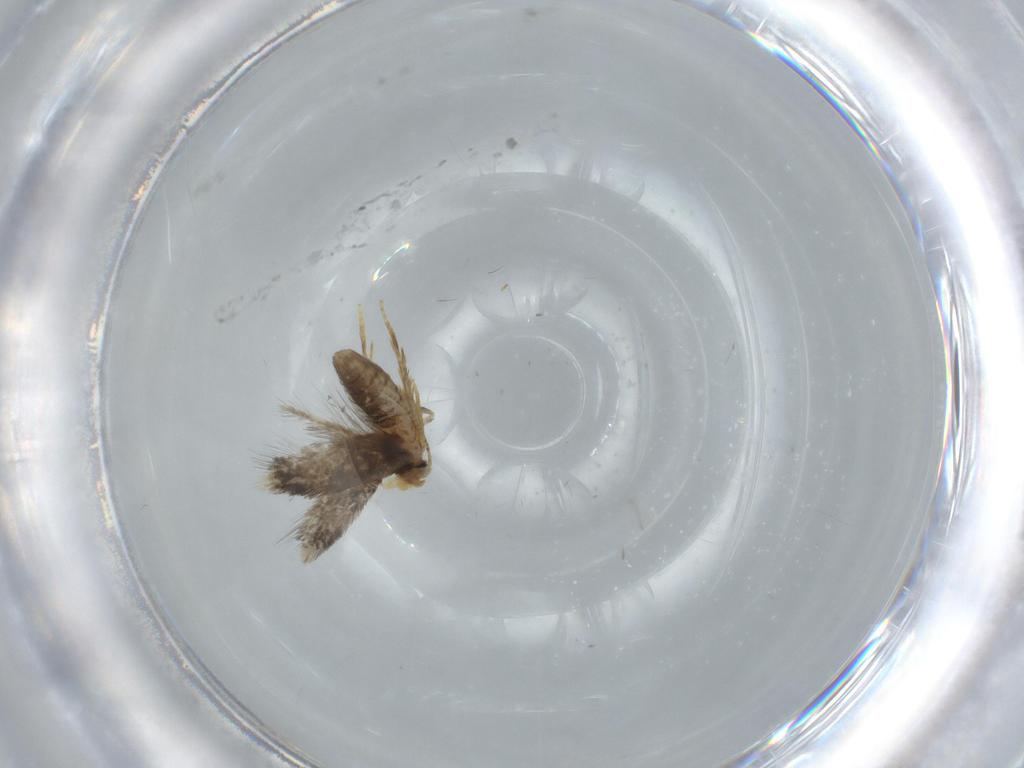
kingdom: Animalia
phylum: Arthropoda
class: Insecta
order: Lepidoptera
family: Nepticulidae
